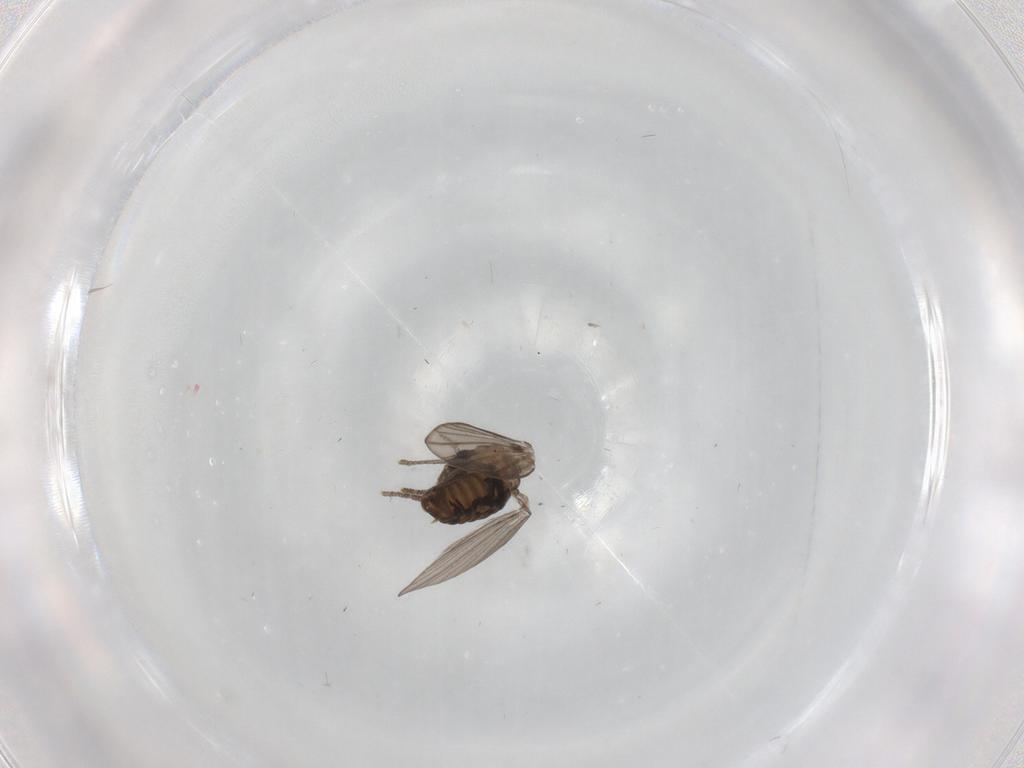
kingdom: Animalia
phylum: Arthropoda
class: Insecta
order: Diptera
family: Psychodidae
